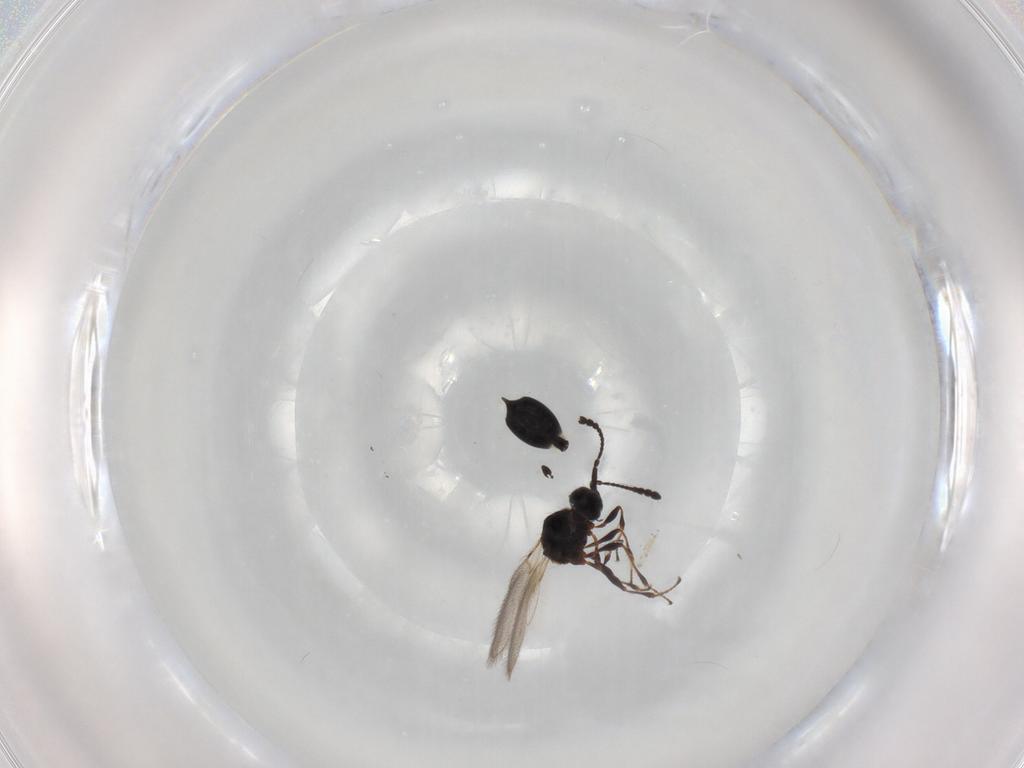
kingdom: Animalia
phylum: Arthropoda
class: Insecta
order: Hymenoptera
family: Diapriidae
